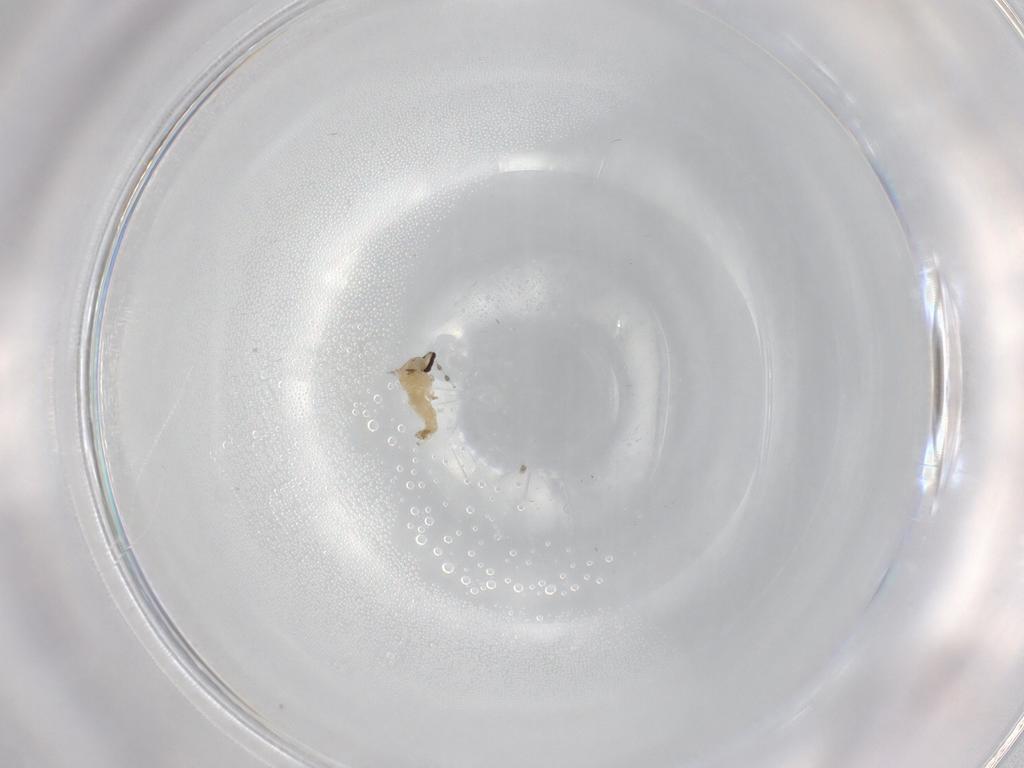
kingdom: Animalia
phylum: Arthropoda
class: Insecta
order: Diptera
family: Cecidomyiidae
